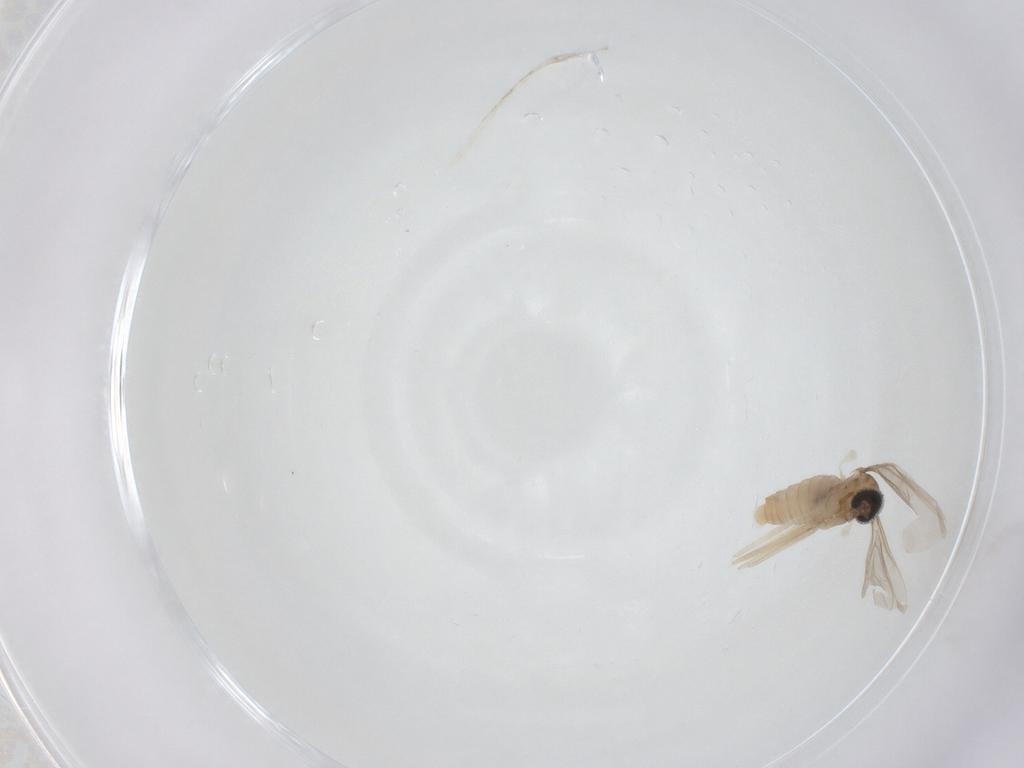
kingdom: Animalia
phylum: Arthropoda
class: Insecta
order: Diptera
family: Cecidomyiidae
